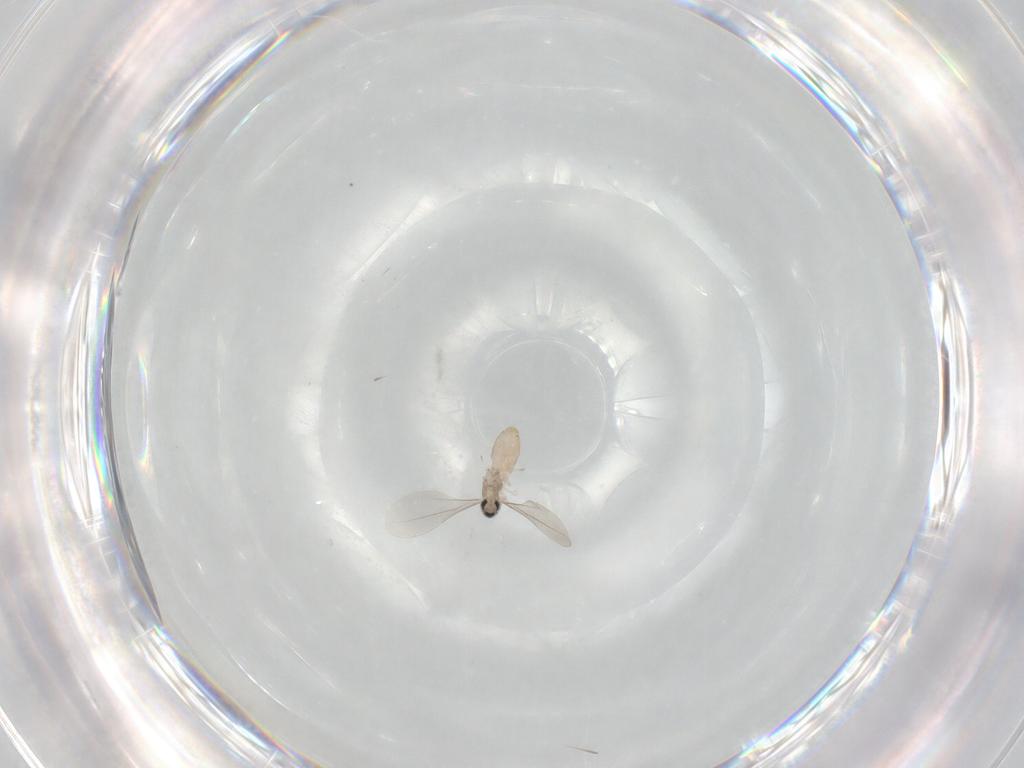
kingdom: Animalia
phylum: Arthropoda
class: Insecta
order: Diptera
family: Cecidomyiidae
